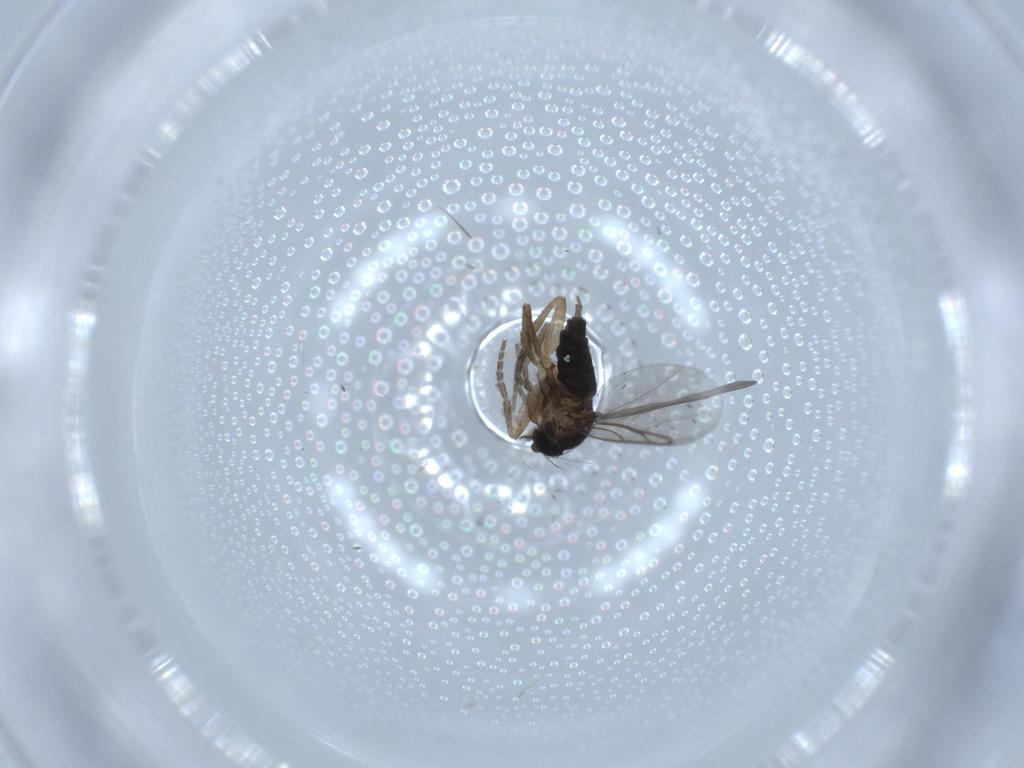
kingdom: Animalia
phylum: Arthropoda
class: Insecta
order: Diptera
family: Phoridae
